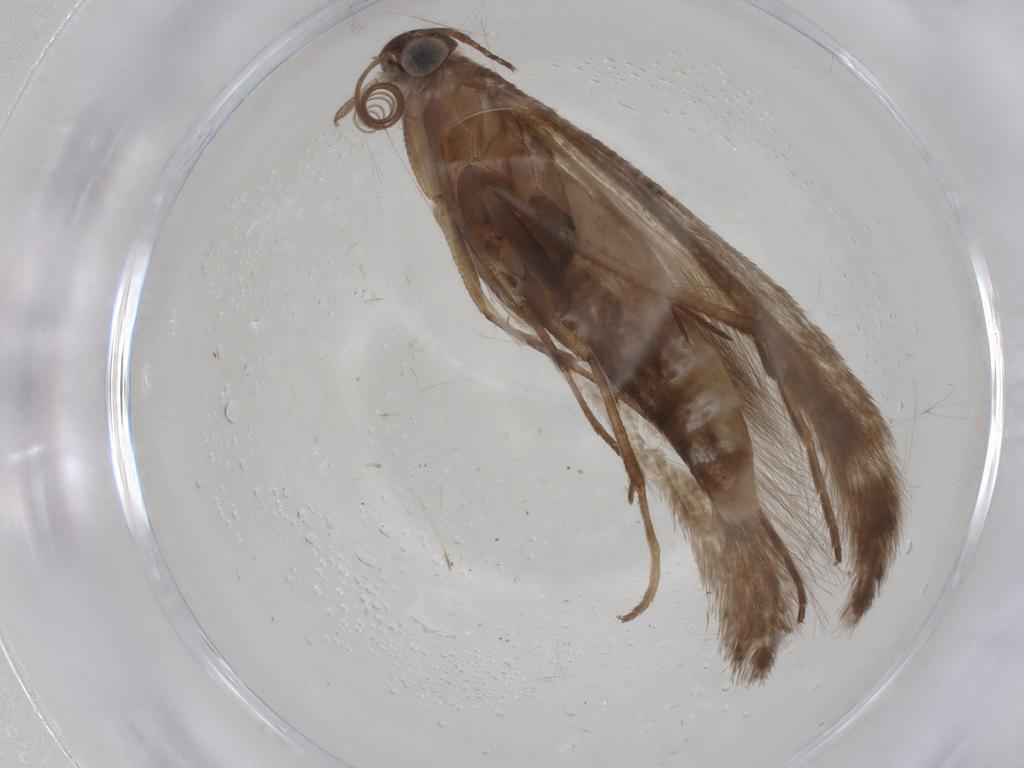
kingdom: Animalia
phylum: Arthropoda
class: Insecta
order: Lepidoptera
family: Gelechiidae
